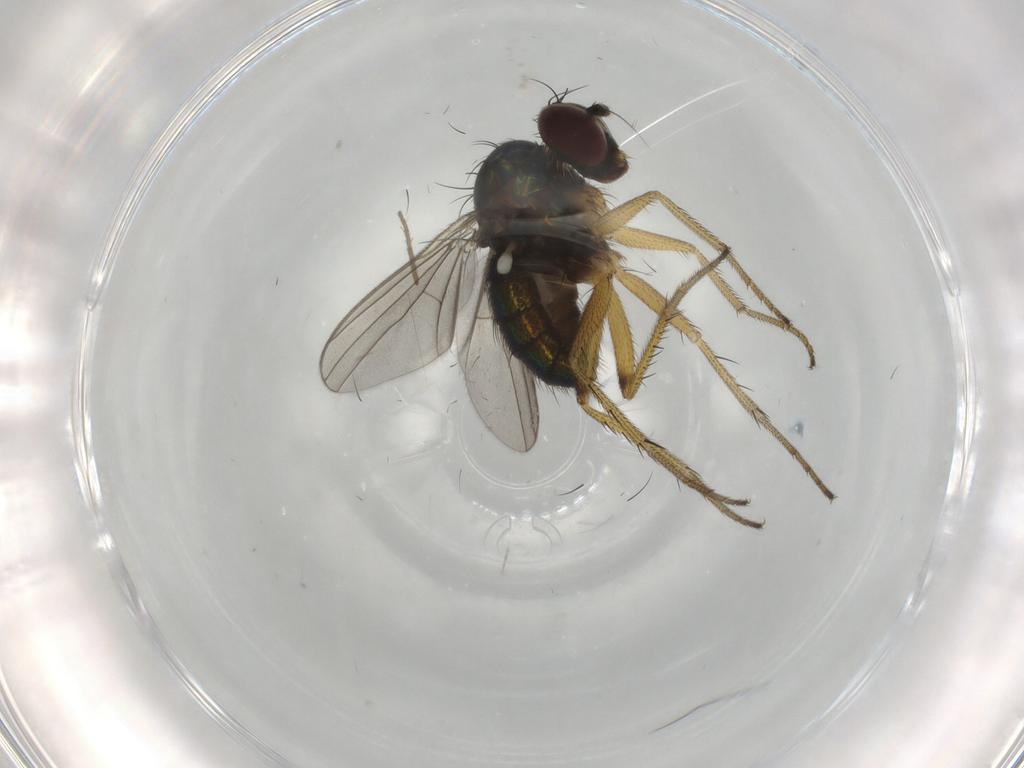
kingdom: Animalia
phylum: Arthropoda
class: Insecta
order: Diptera
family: Dolichopodidae
